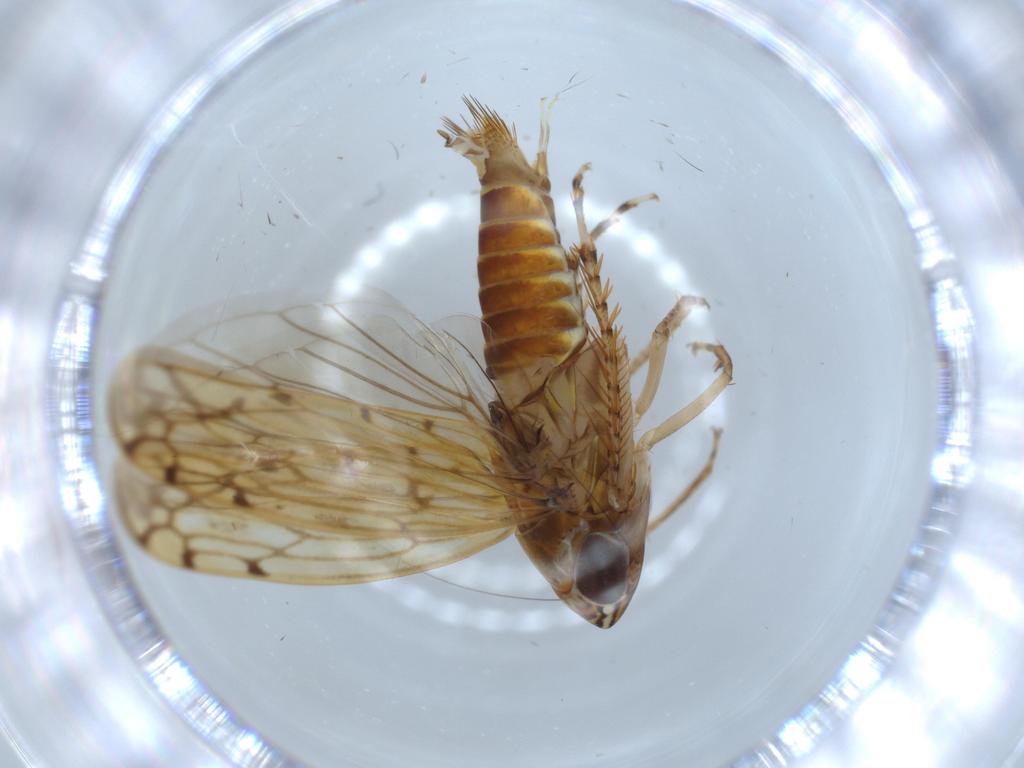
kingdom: Animalia
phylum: Arthropoda
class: Insecta
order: Hemiptera
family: Cicadellidae
